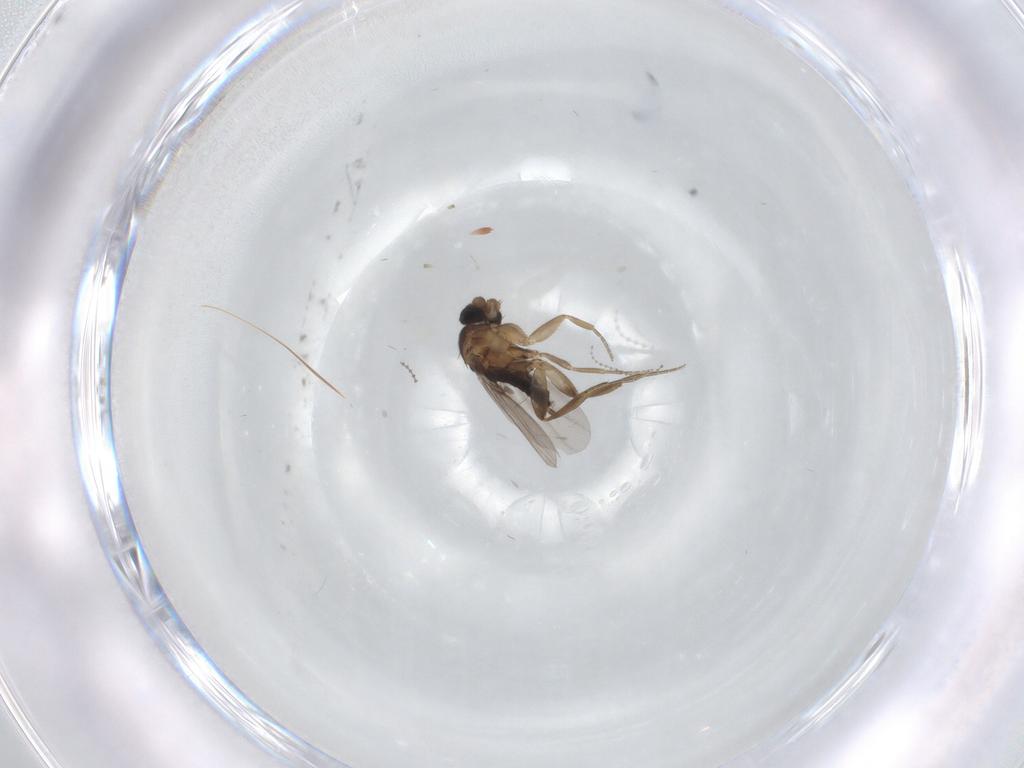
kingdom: Animalia
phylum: Arthropoda
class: Insecta
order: Diptera
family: Phoridae
